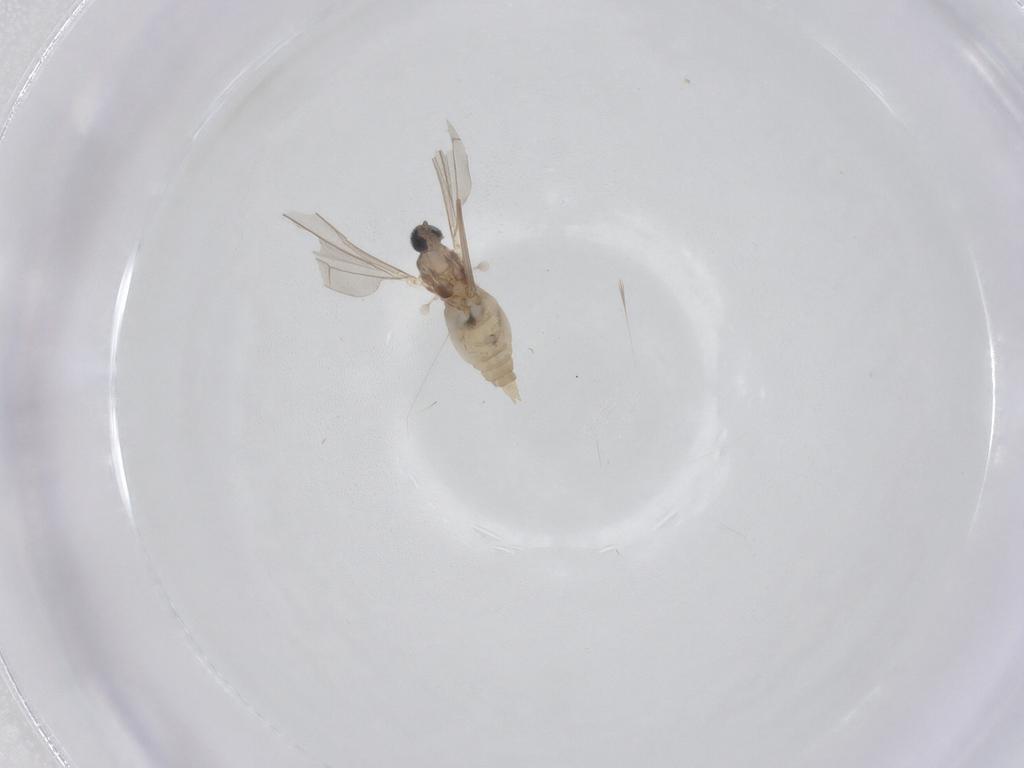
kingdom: Animalia
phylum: Arthropoda
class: Insecta
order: Diptera
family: Cecidomyiidae
